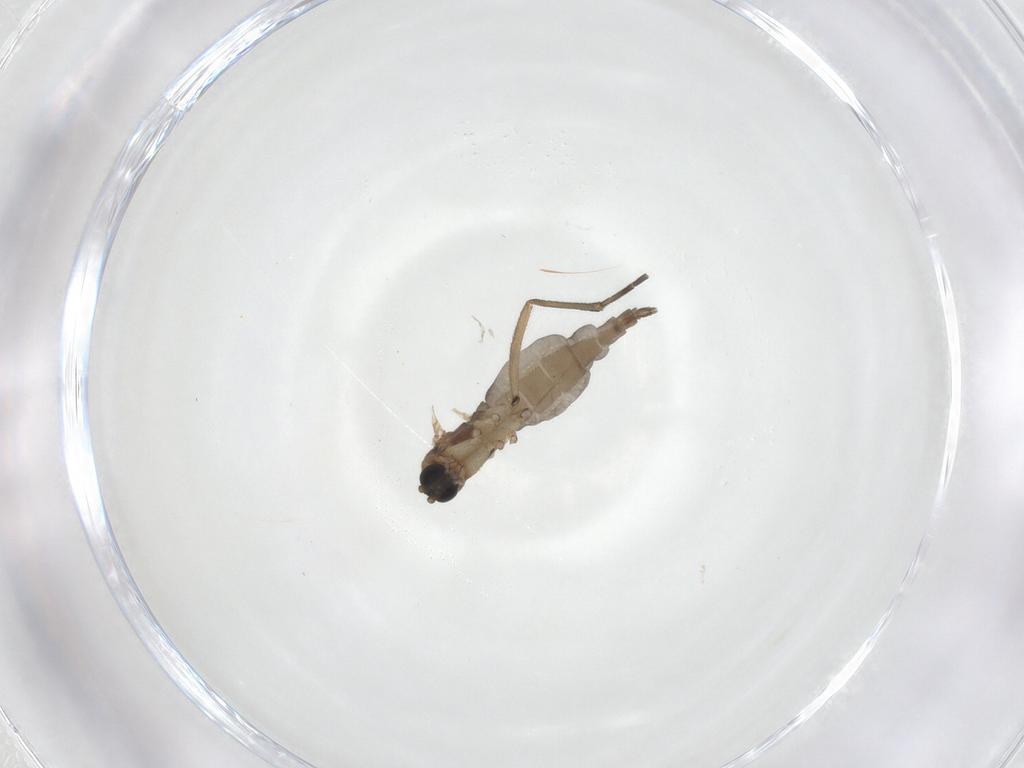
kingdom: Animalia
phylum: Arthropoda
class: Insecta
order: Diptera
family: Sciaridae
